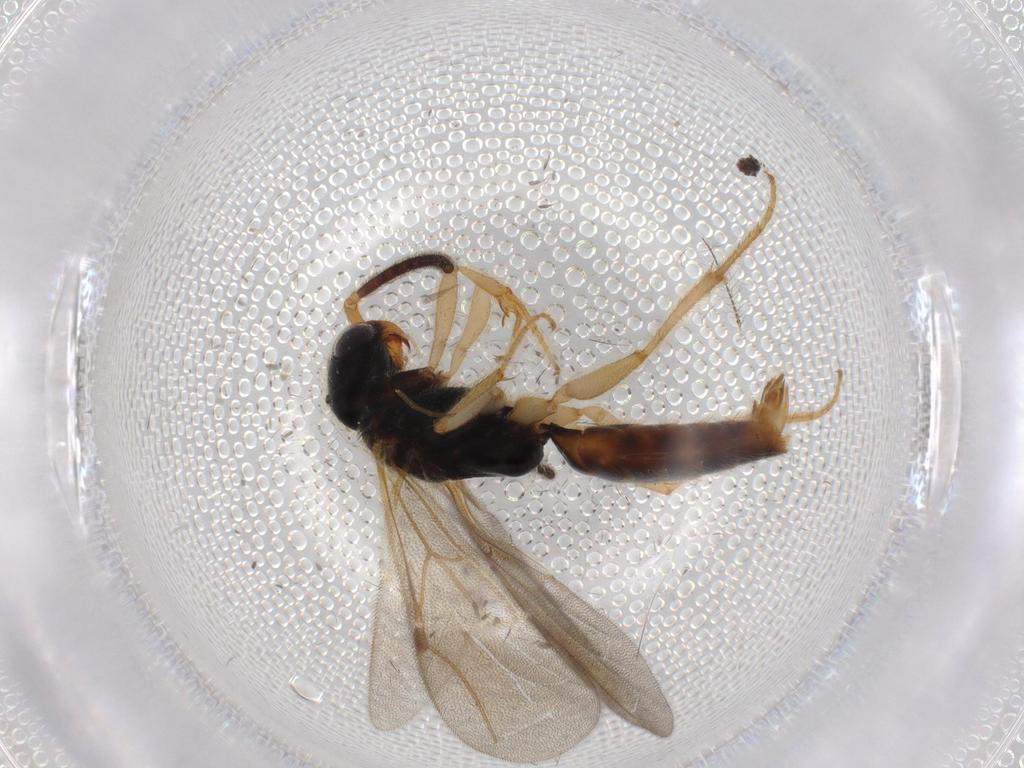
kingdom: Animalia
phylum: Arthropoda
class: Insecta
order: Hymenoptera
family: Bethylidae
